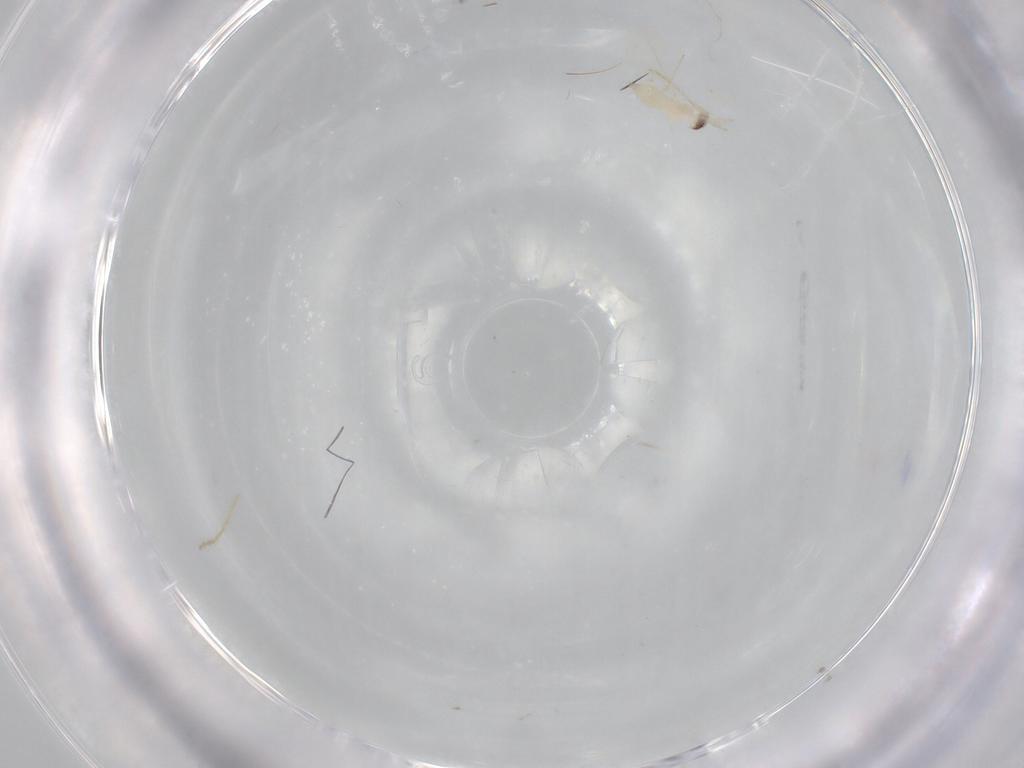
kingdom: Animalia
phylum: Arthropoda
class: Insecta
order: Diptera
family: Cecidomyiidae
